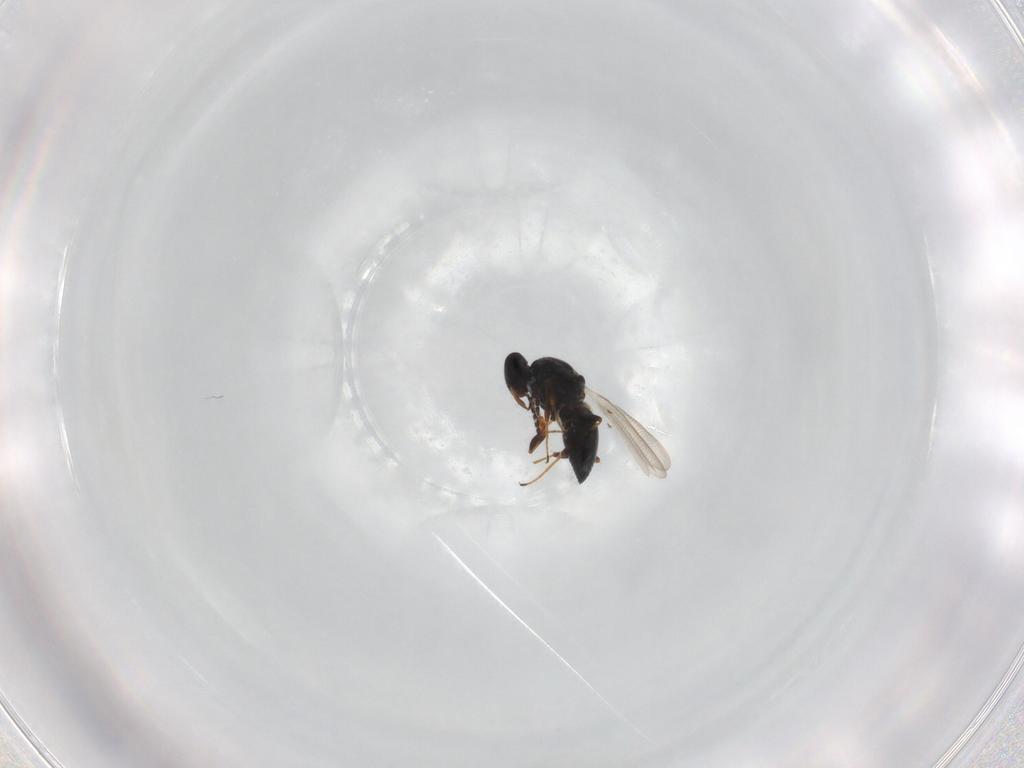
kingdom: Animalia
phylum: Arthropoda
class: Insecta
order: Hymenoptera
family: Platygastridae
